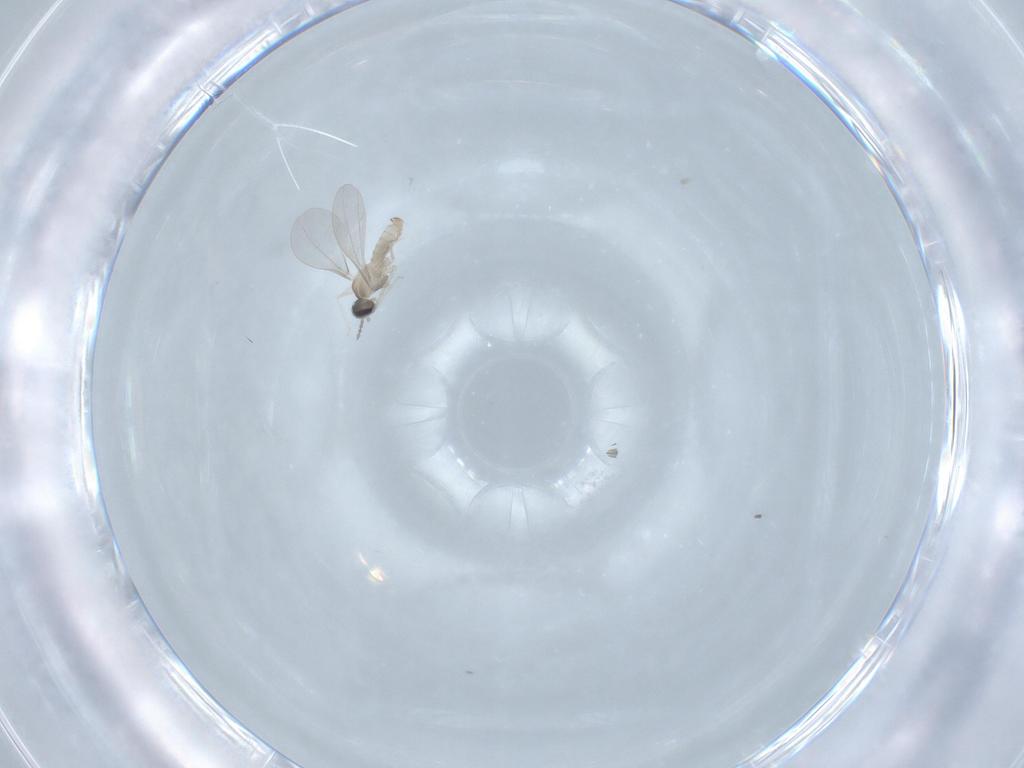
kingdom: Animalia
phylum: Arthropoda
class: Insecta
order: Diptera
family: Cecidomyiidae
